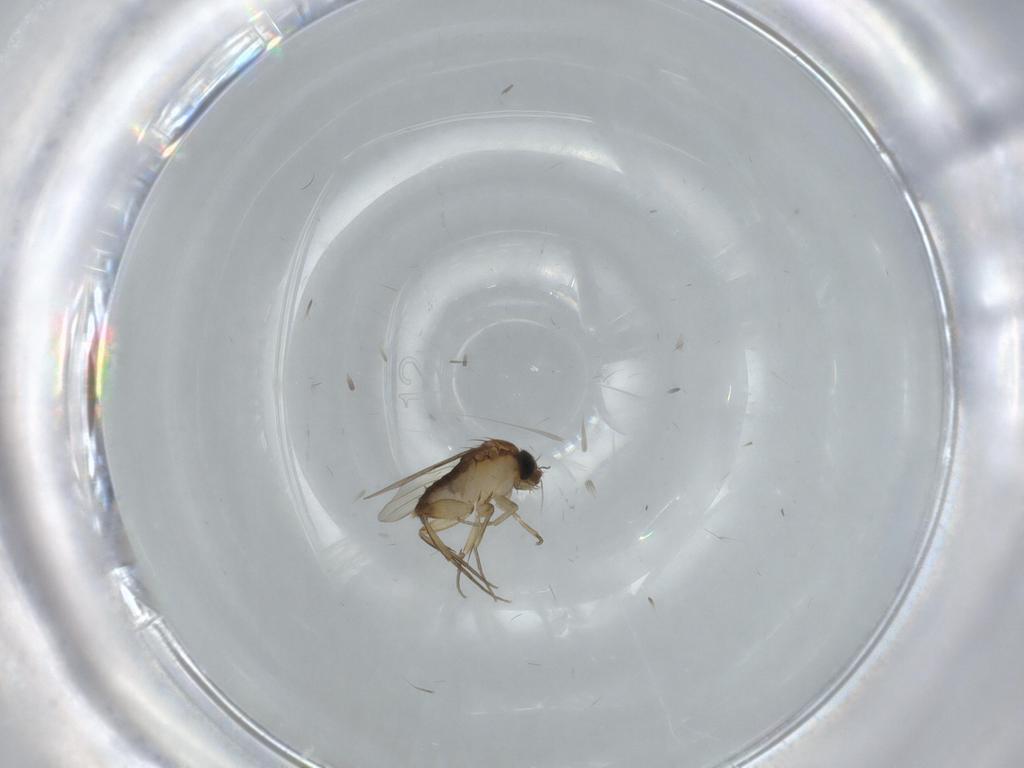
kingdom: Animalia
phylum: Arthropoda
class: Insecta
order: Diptera
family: Phoridae
